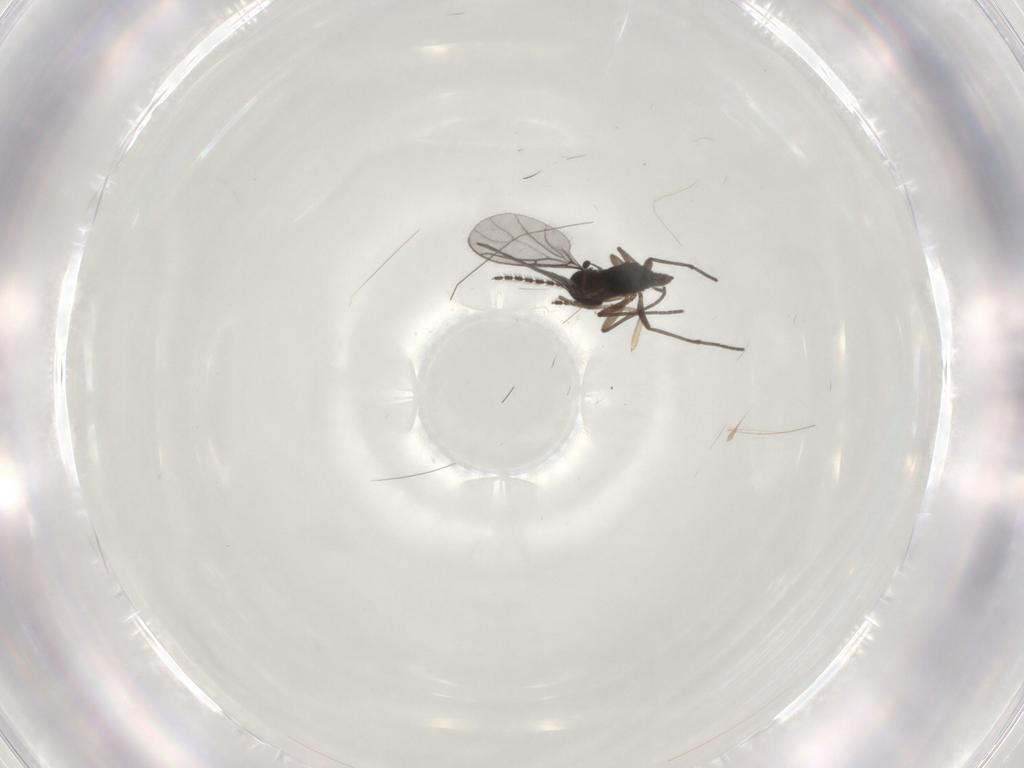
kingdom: Animalia
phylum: Arthropoda
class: Insecta
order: Diptera
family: Sciaridae
